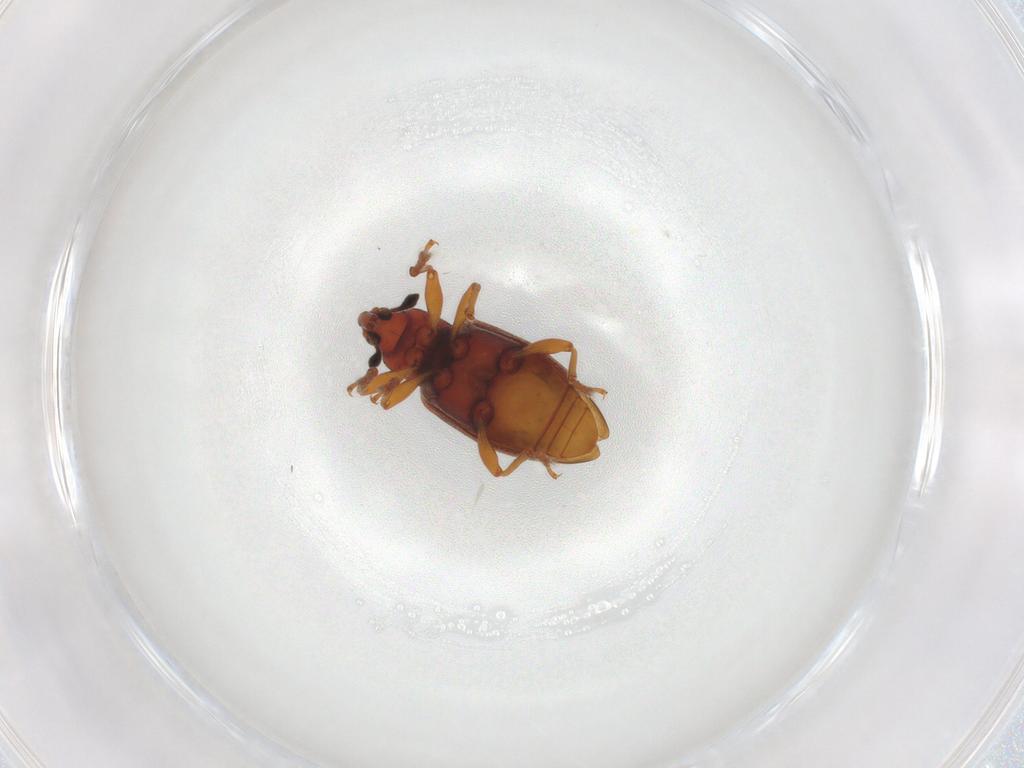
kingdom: Animalia
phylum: Arthropoda
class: Insecta
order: Coleoptera
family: Curculionidae
